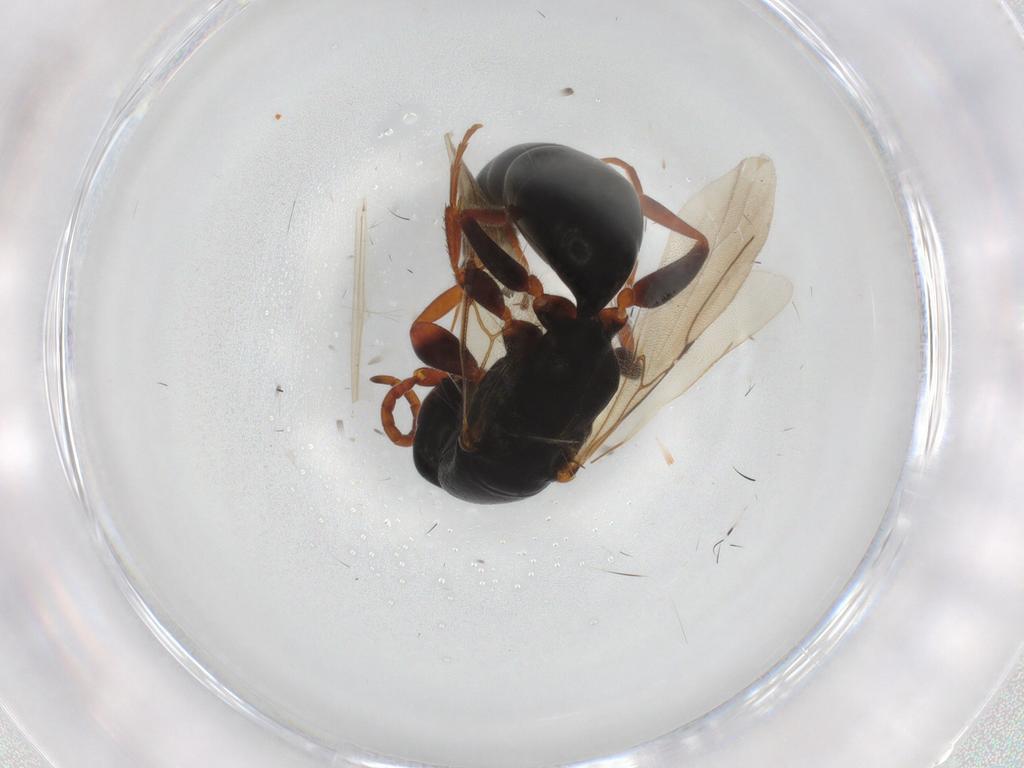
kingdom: Animalia
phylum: Arthropoda
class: Insecta
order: Hymenoptera
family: Bethylidae
